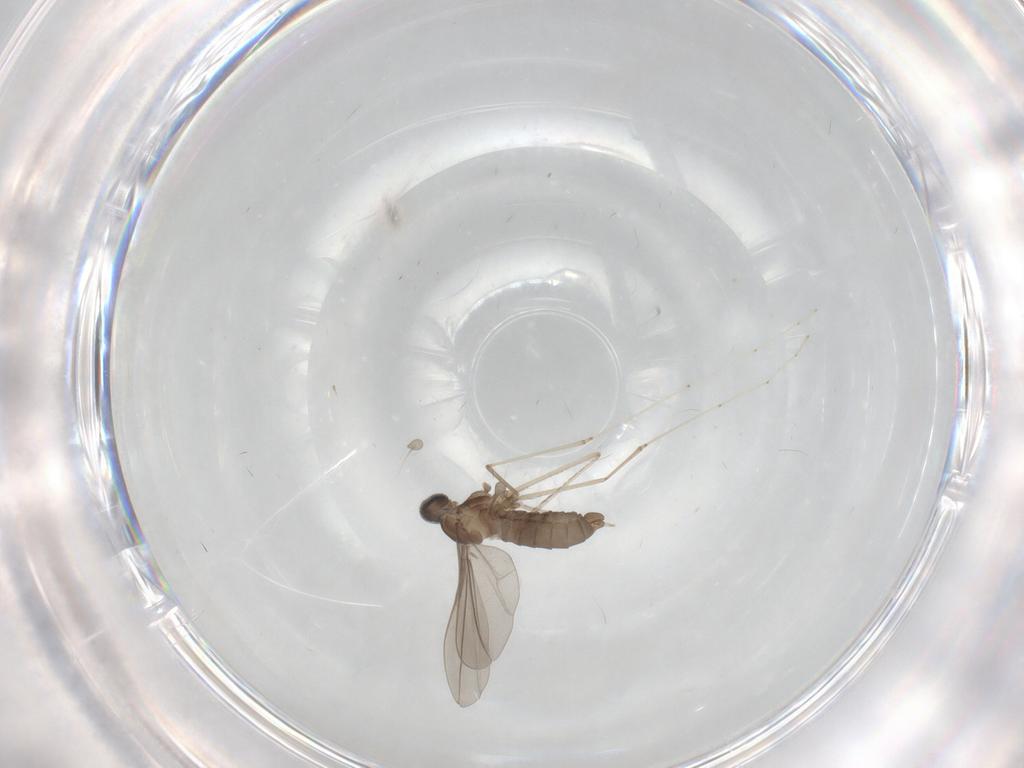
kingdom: Animalia
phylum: Arthropoda
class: Insecta
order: Diptera
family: Cecidomyiidae
